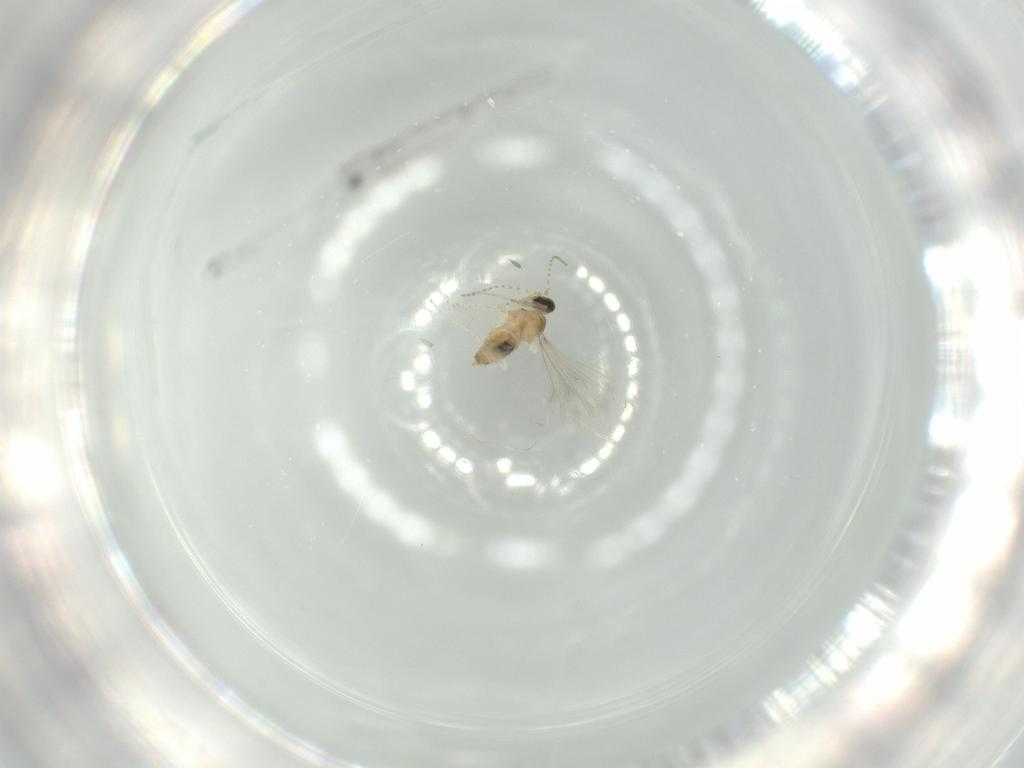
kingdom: Animalia
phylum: Arthropoda
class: Insecta
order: Diptera
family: Cecidomyiidae
